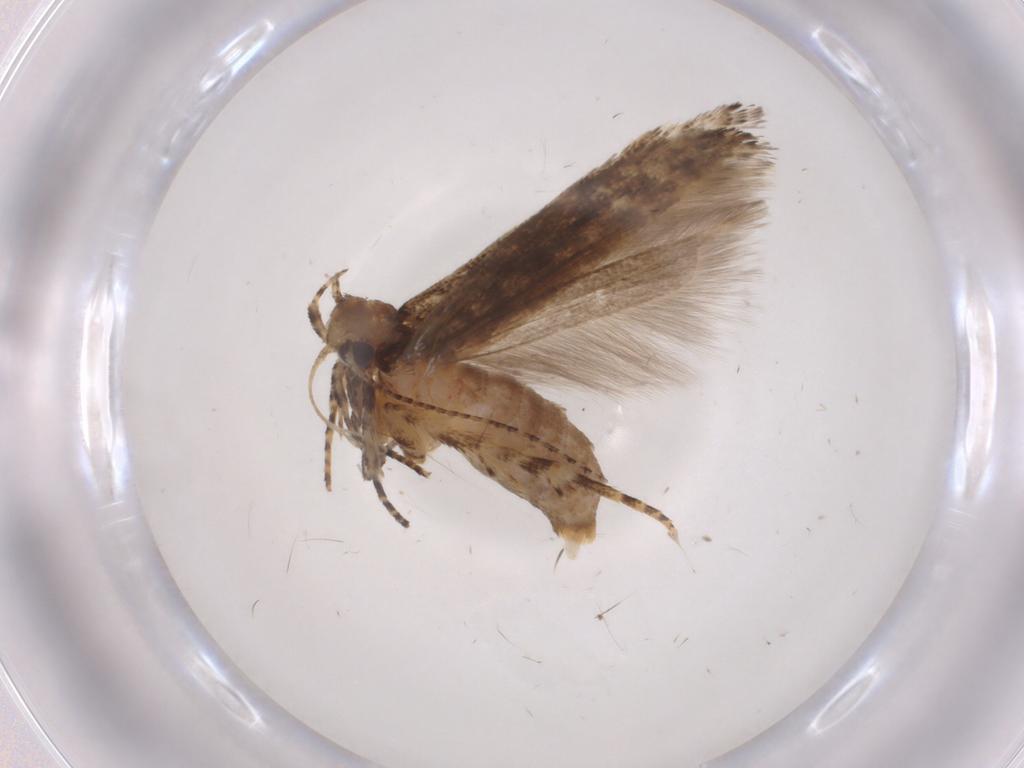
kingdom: Animalia
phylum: Arthropoda
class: Insecta
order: Lepidoptera
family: Gelechiidae
